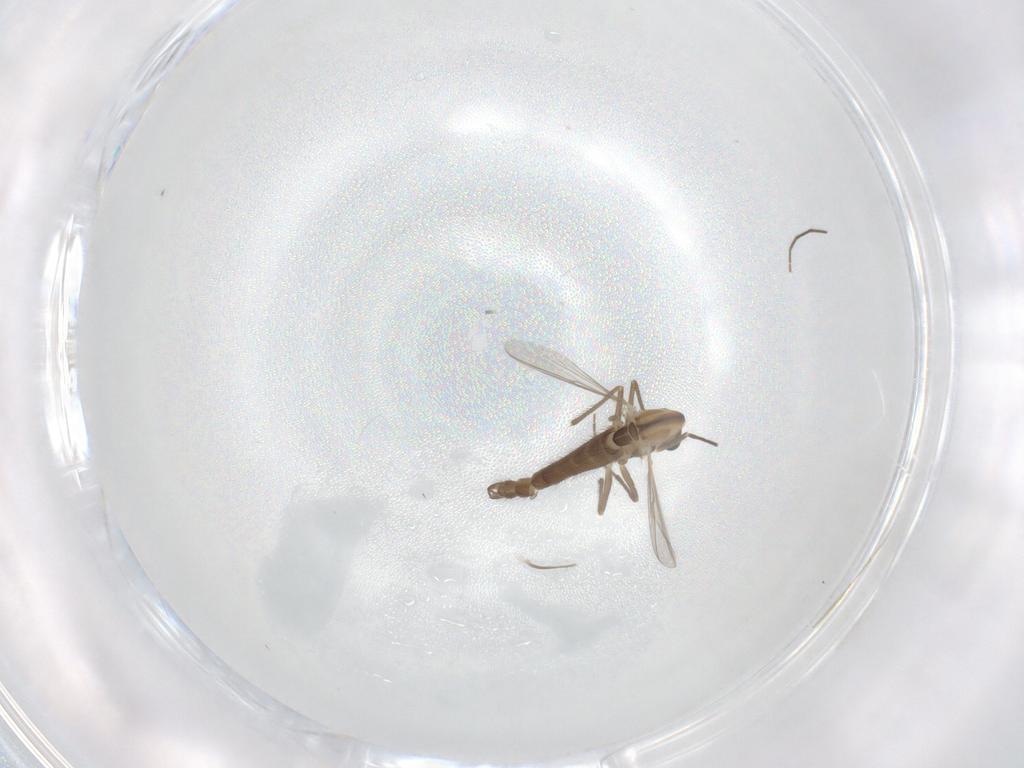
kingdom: Animalia
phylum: Arthropoda
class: Insecta
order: Diptera
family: Chironomidae
